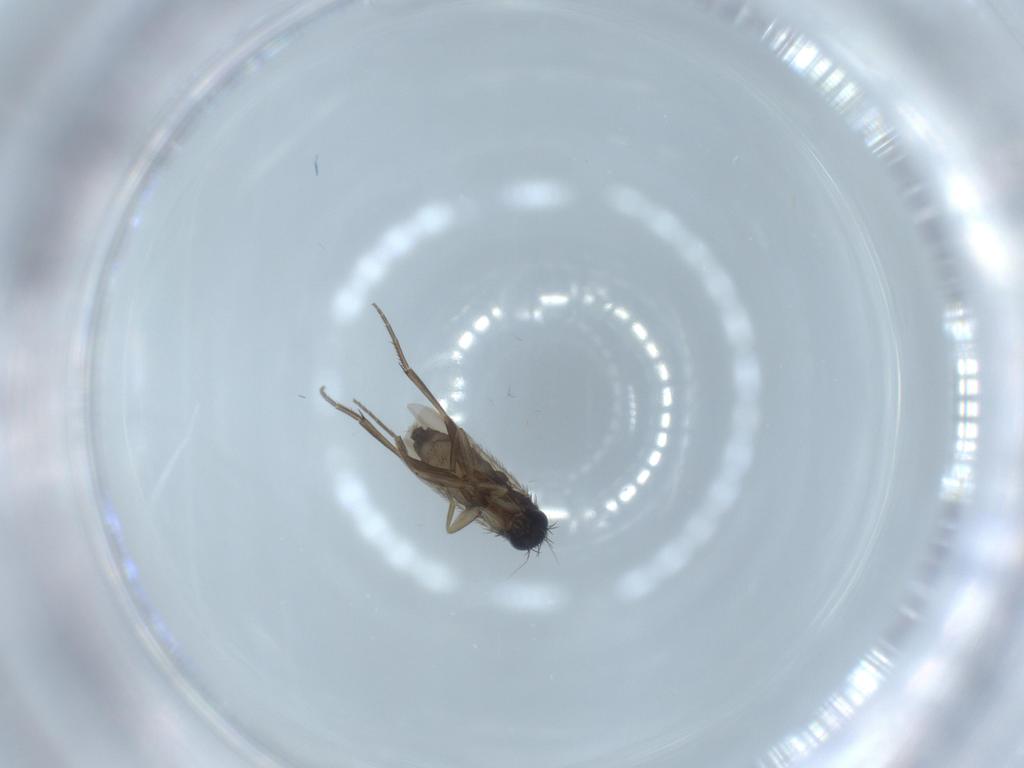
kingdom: Animalia
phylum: Arthropoda
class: Insecta
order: Diptera
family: Phoridae
